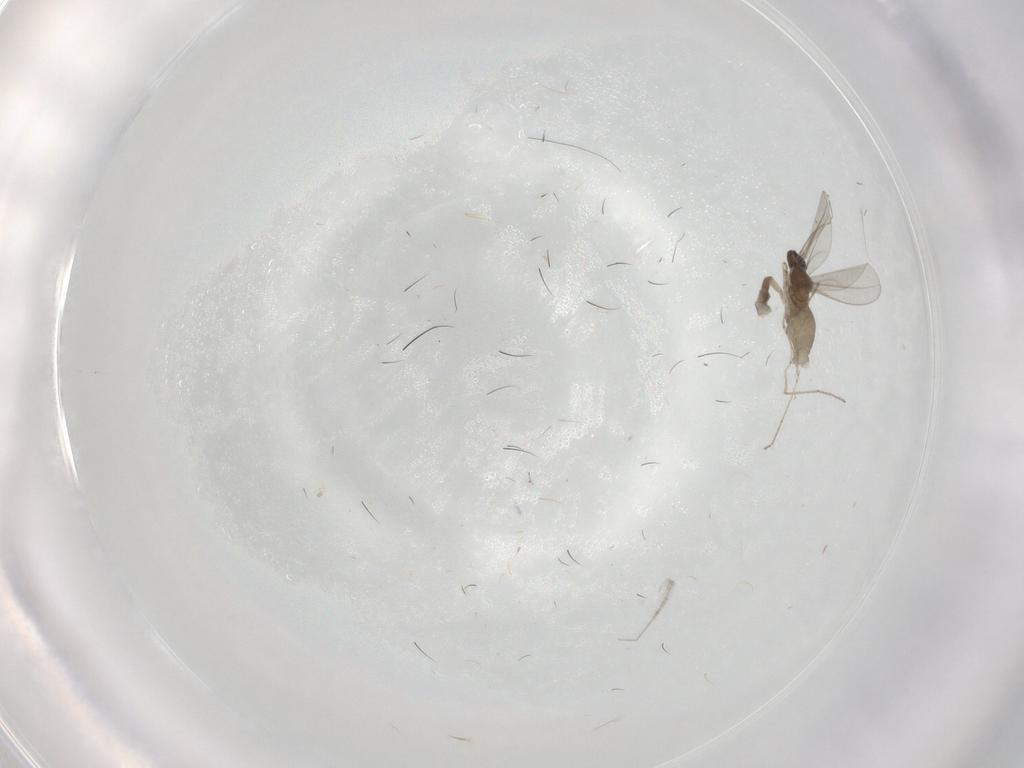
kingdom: Animalia
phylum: Arthropoda
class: Insecta
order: Diptera
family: Cecidomyiidae
